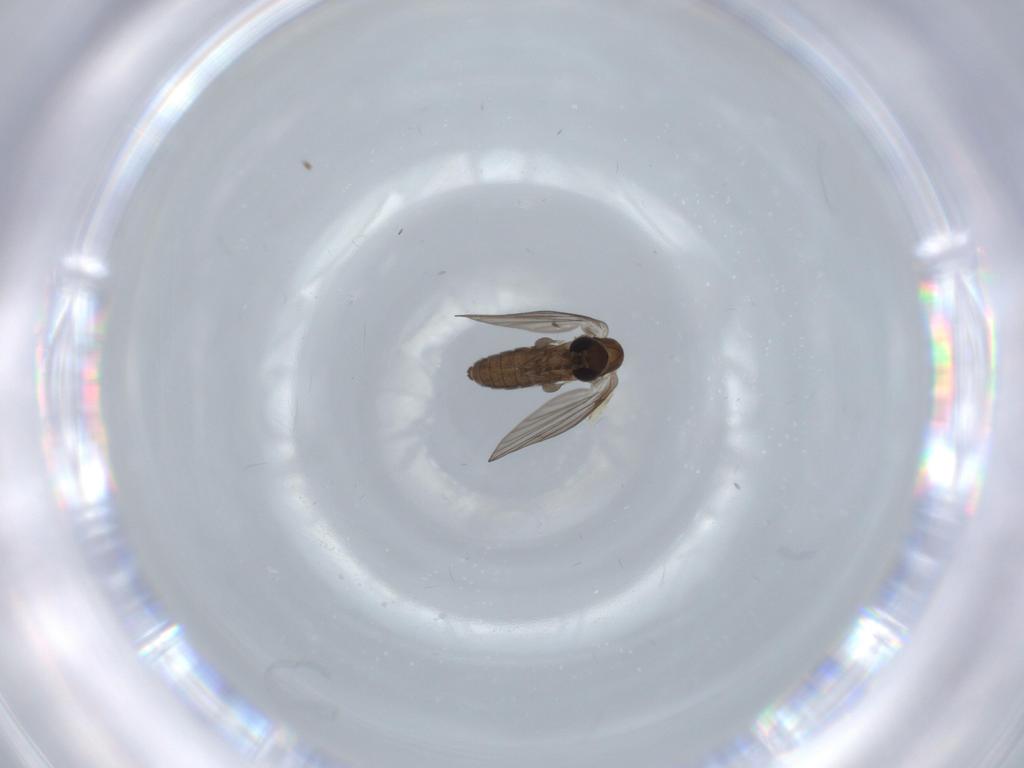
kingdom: Animalia
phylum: Arthropoda
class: Insecta
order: Diptera
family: Psychodidae
